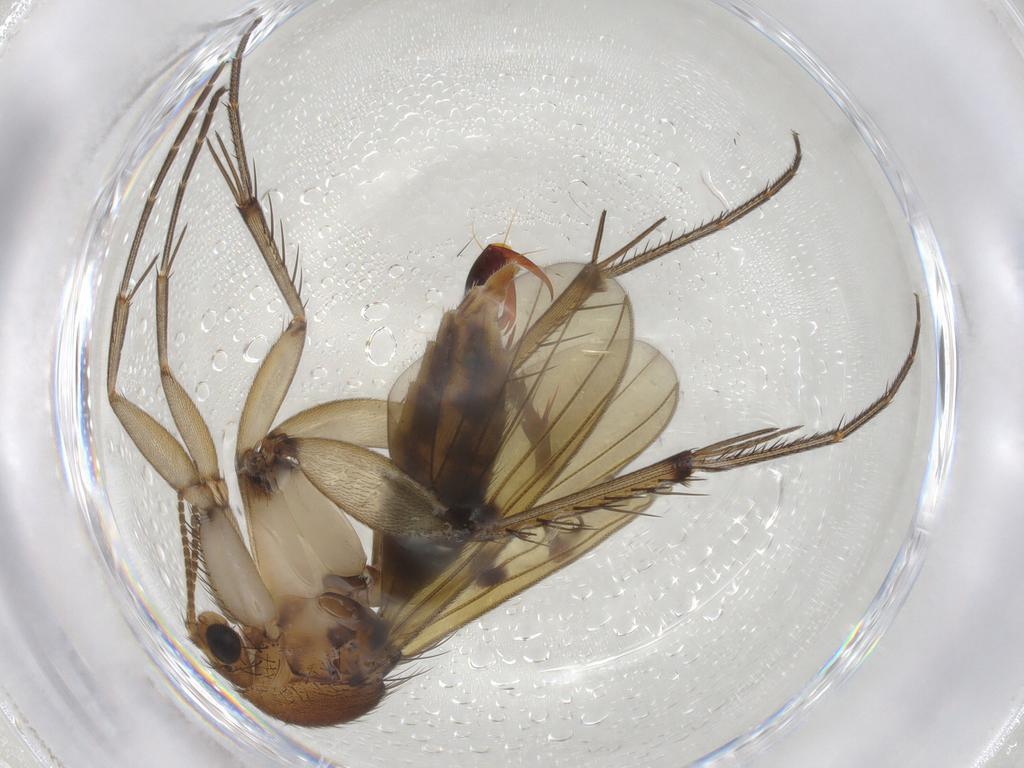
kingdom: Animalia
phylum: Arthropoda
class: Insecta
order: Diptera
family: Mycetophilidae
